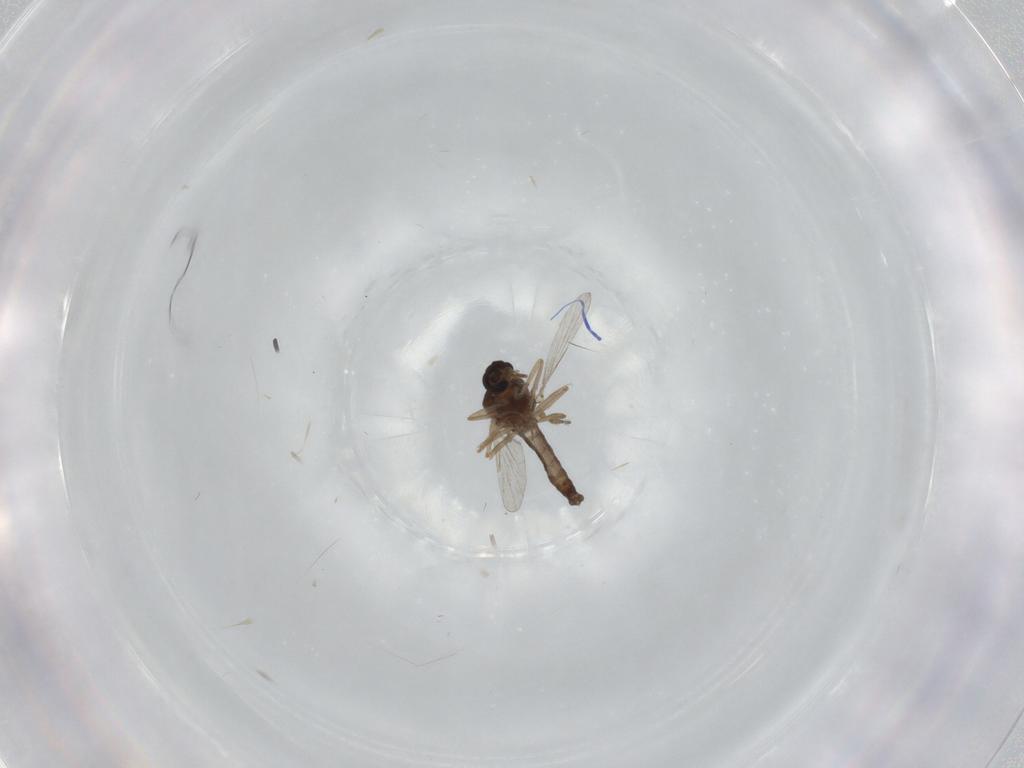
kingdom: Animalia
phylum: Arthropoda
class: Insecta
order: Diptera
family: Ceratopogonidae
